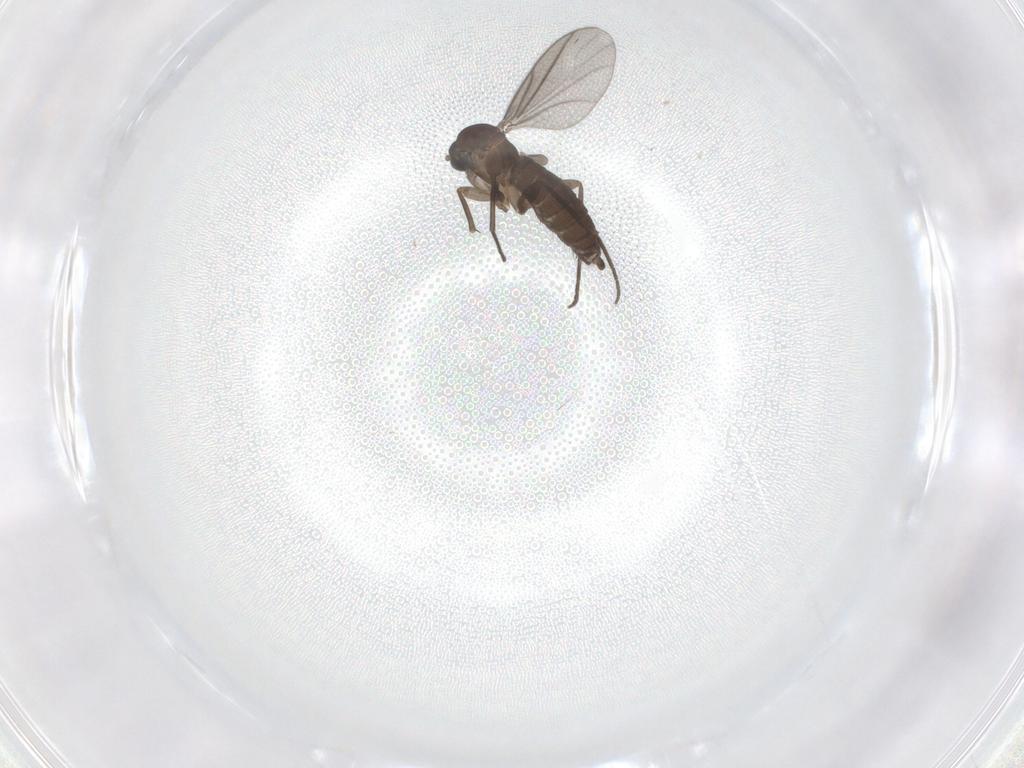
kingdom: Animalia
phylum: Arthropoda
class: Insecta
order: Diptera
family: Sciaridae
